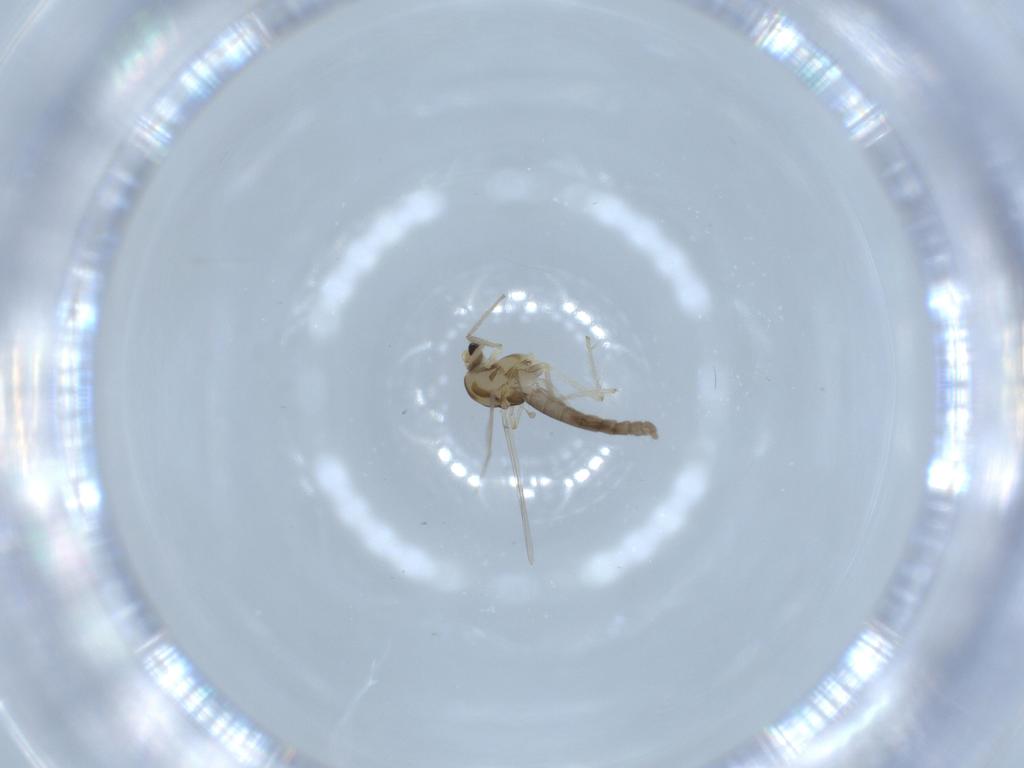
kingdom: Animalia
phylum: Arthropoda
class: Insecta
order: Diptera
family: Chironomidae
